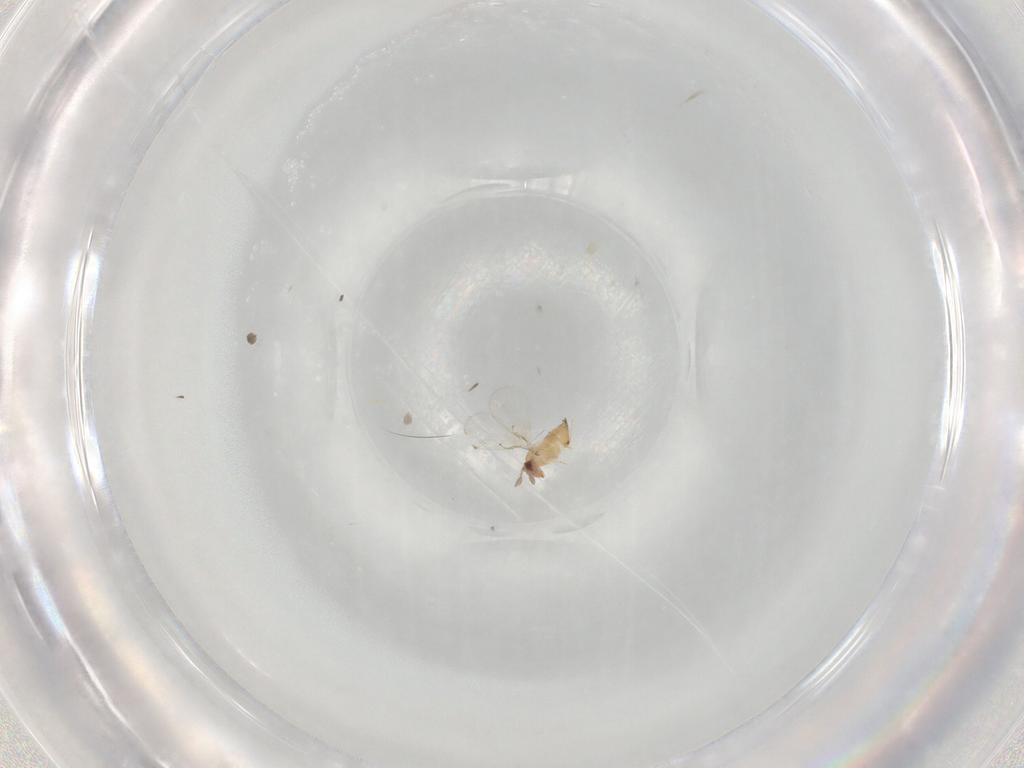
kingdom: Animalia
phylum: Arthropoda
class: Insecta
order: Hymenoptera
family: Trichogrammatidae
